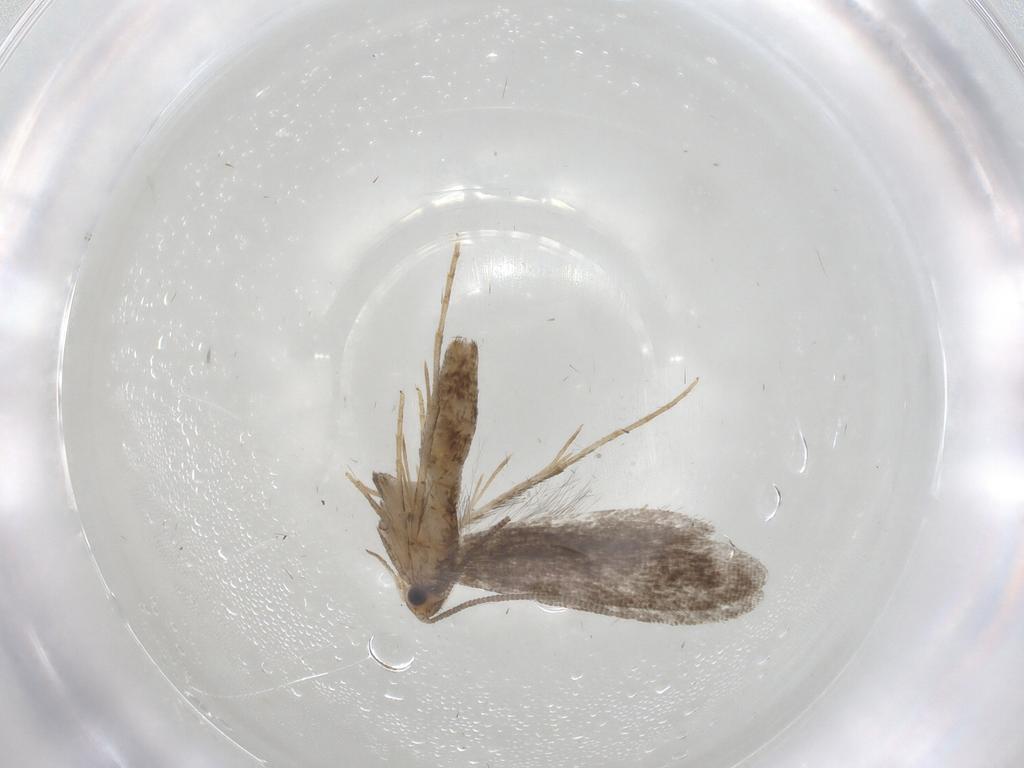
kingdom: Animalia
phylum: Arthropoda
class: Insecta
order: Lepidoptera
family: Tineidae
